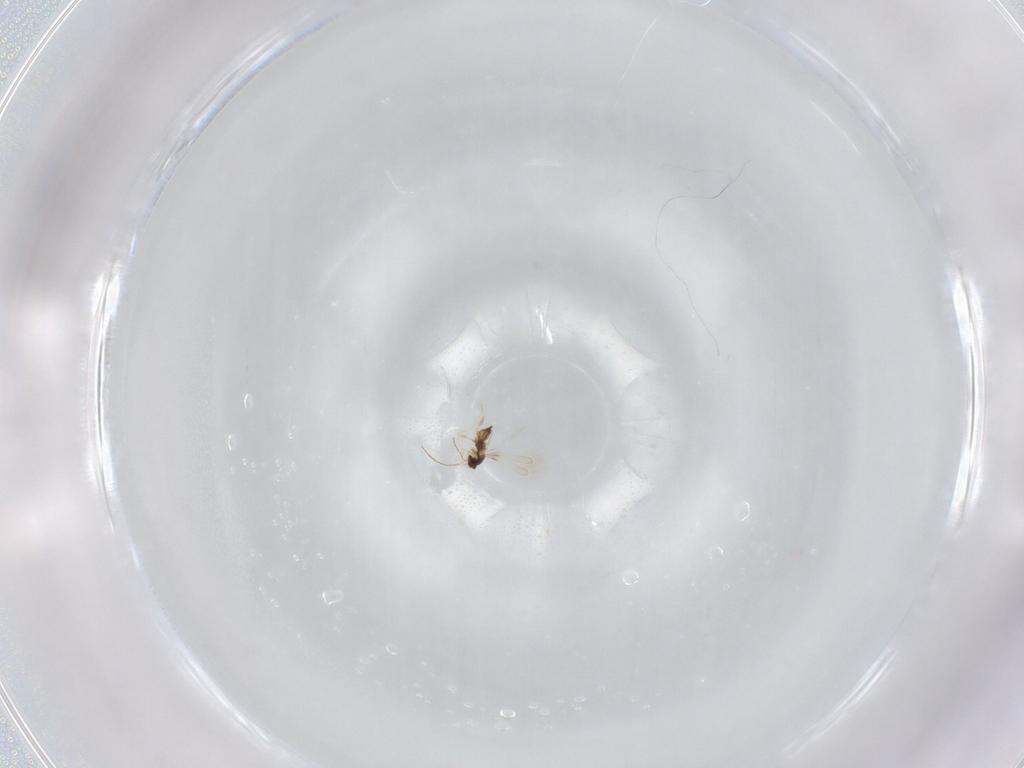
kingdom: Animalia
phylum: Arthropoda
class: Insecta
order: Hymenoptera
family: Mymaridae
